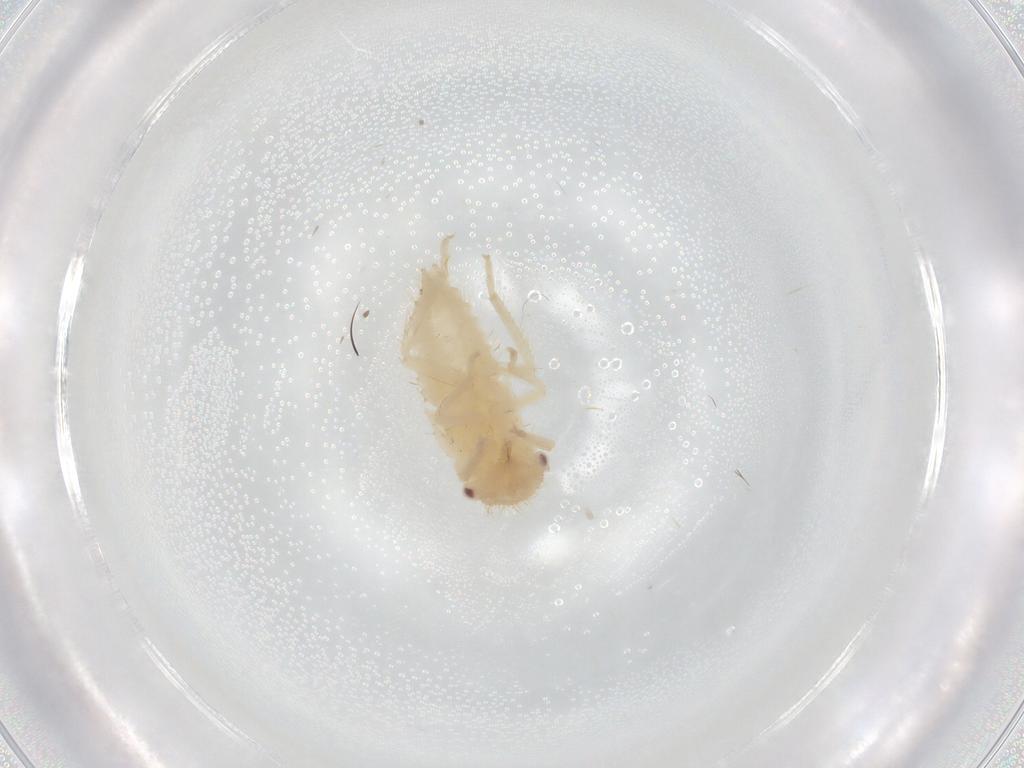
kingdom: Animalia
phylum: Arthropoda
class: Insecta
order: Hemiptera
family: Cicadellidae
